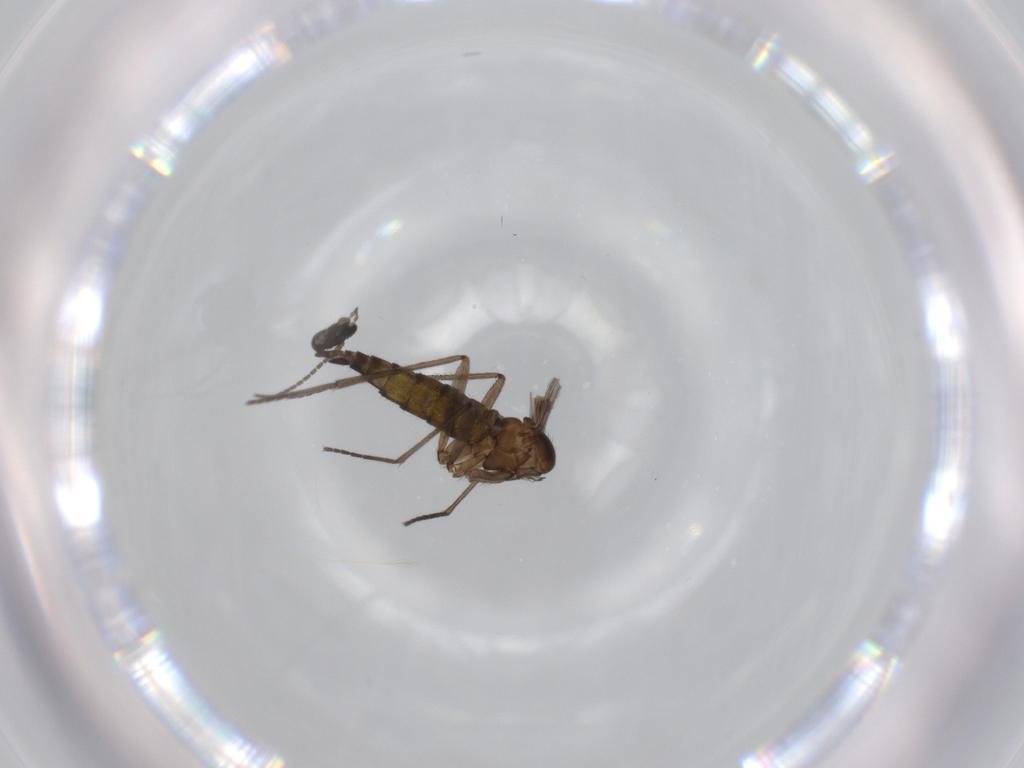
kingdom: Animalia
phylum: Arthropoda
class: Insecta
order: Diptera
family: Sciaridae
